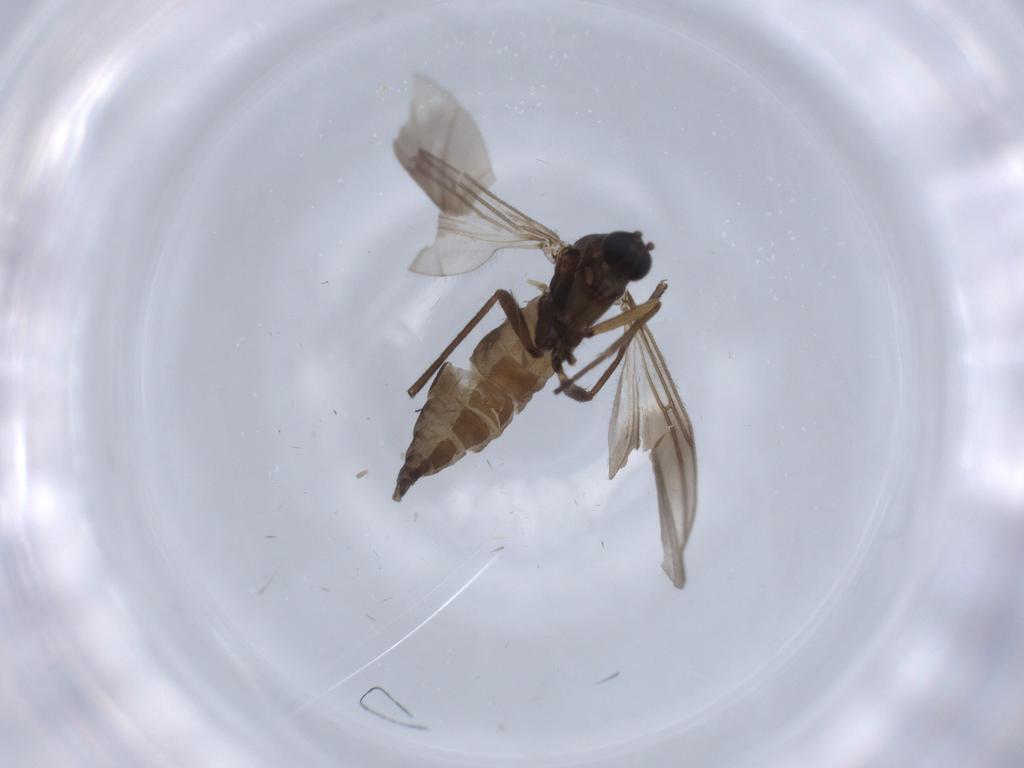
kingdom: Animalia
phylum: Arthropoda
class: Insecta
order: Diptera
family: Sciaridae
